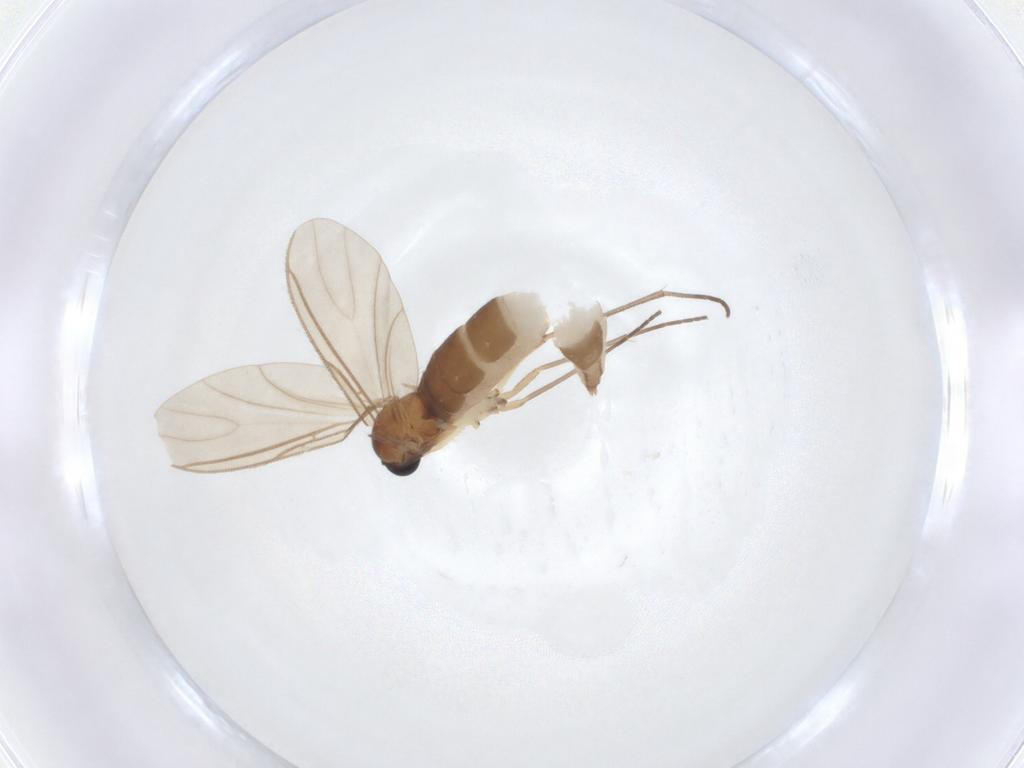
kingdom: Animalia
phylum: Arthropoda
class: Insecta
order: Diptera
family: Sciaridae
